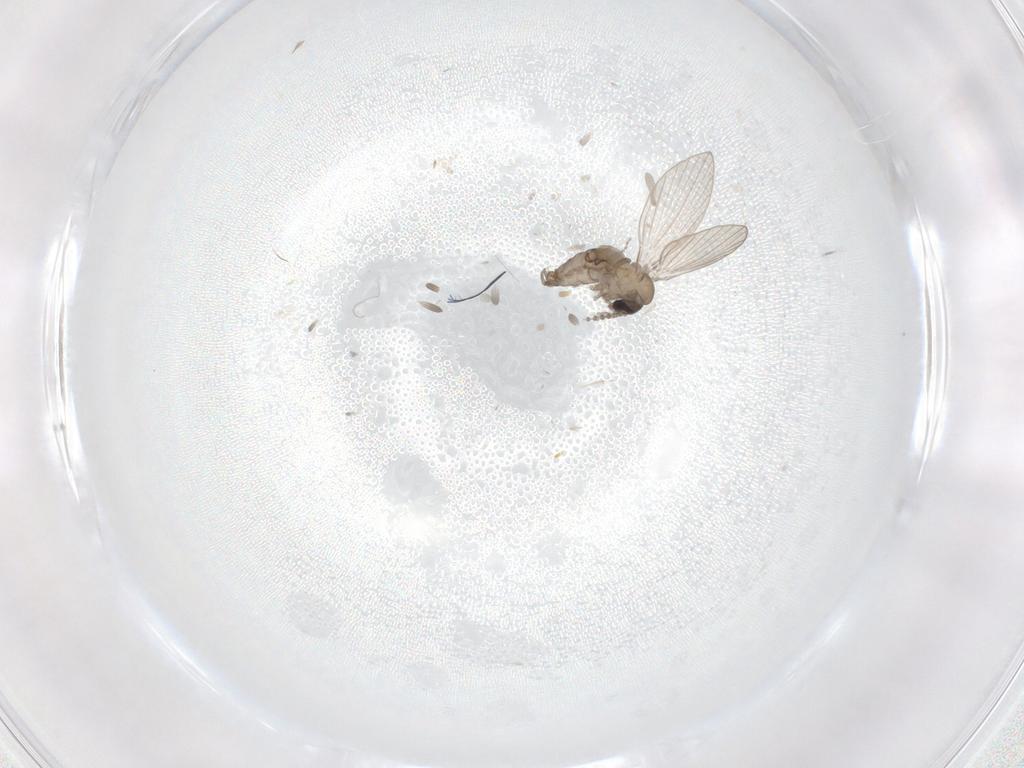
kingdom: Animalia
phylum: Arthropoda
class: Insecta
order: Diptera
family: Psychodidae
